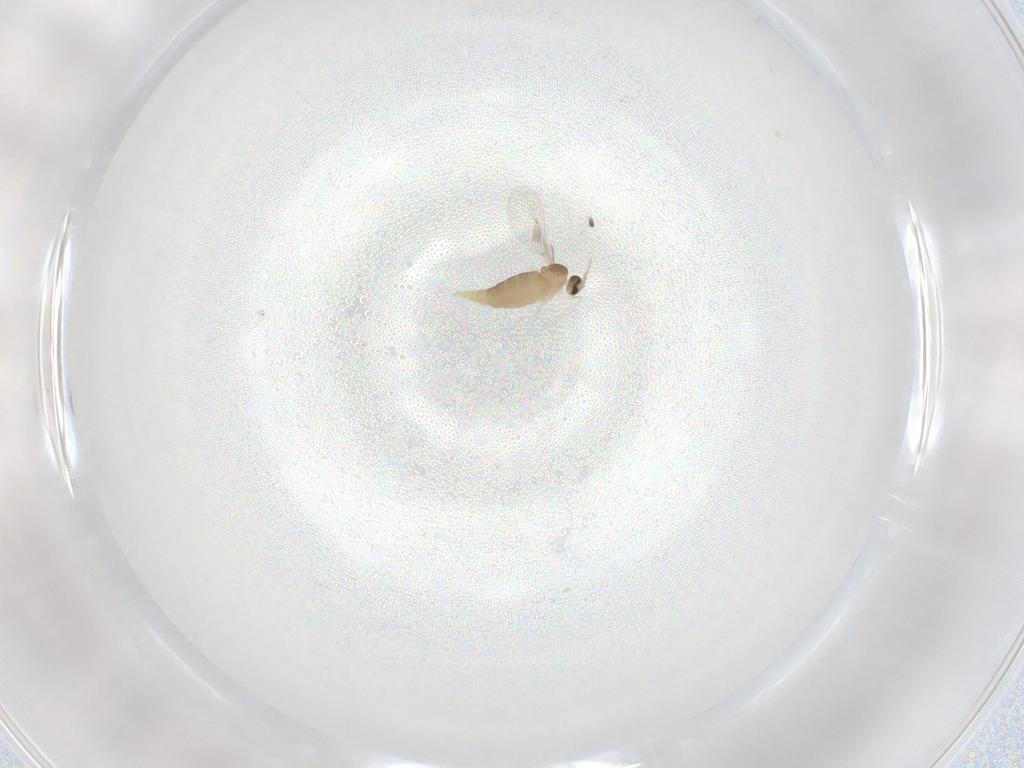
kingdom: Animalia
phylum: Arthropoda
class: Insecta
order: Diptera
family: Cecidomyiidae
